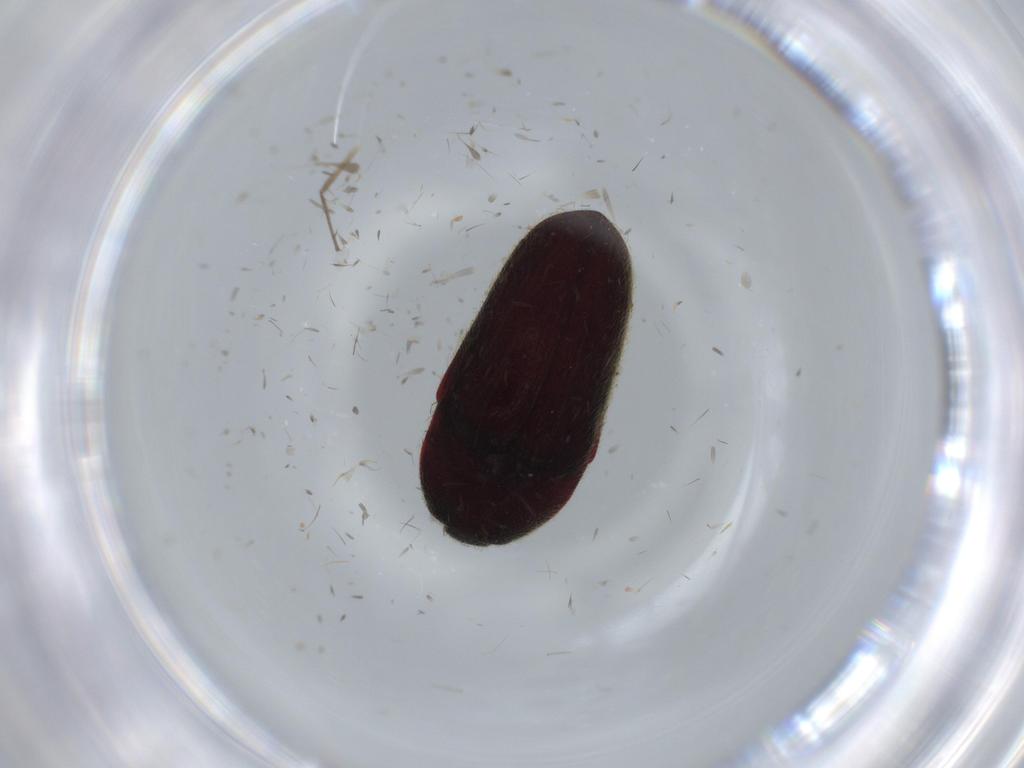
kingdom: Animalia
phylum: Arthropoda
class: Insecta
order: Coleoptera
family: Throscidae
